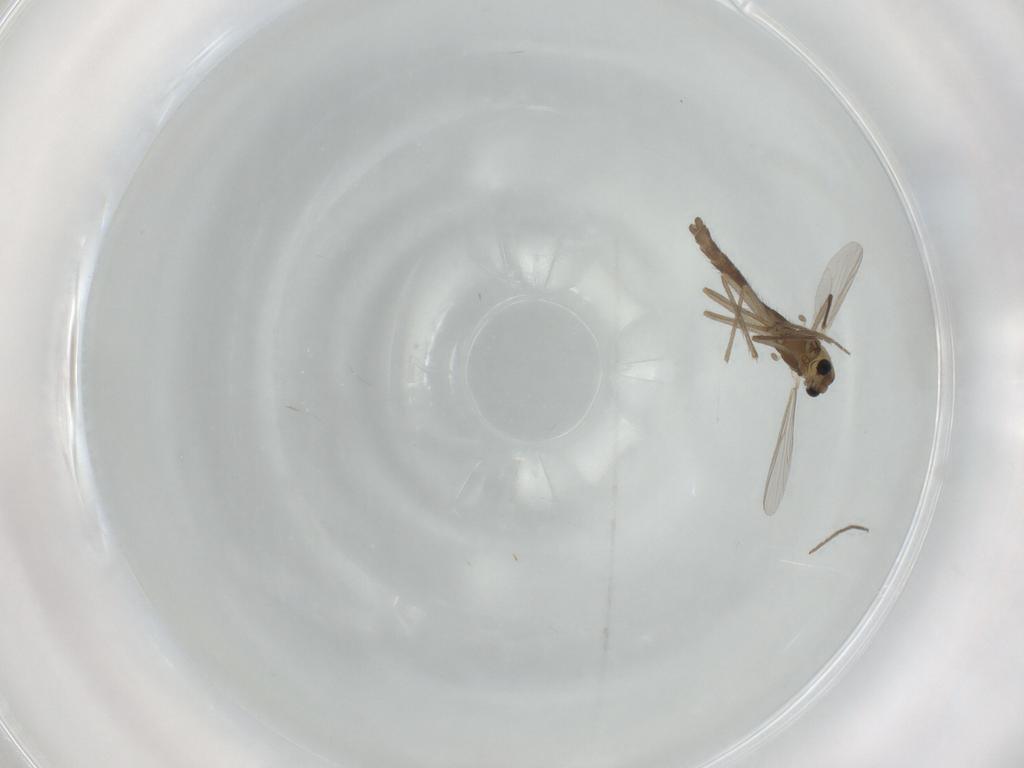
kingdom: Animalia
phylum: Arthropoda
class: Insecta
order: Diptera
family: Chironomidae
